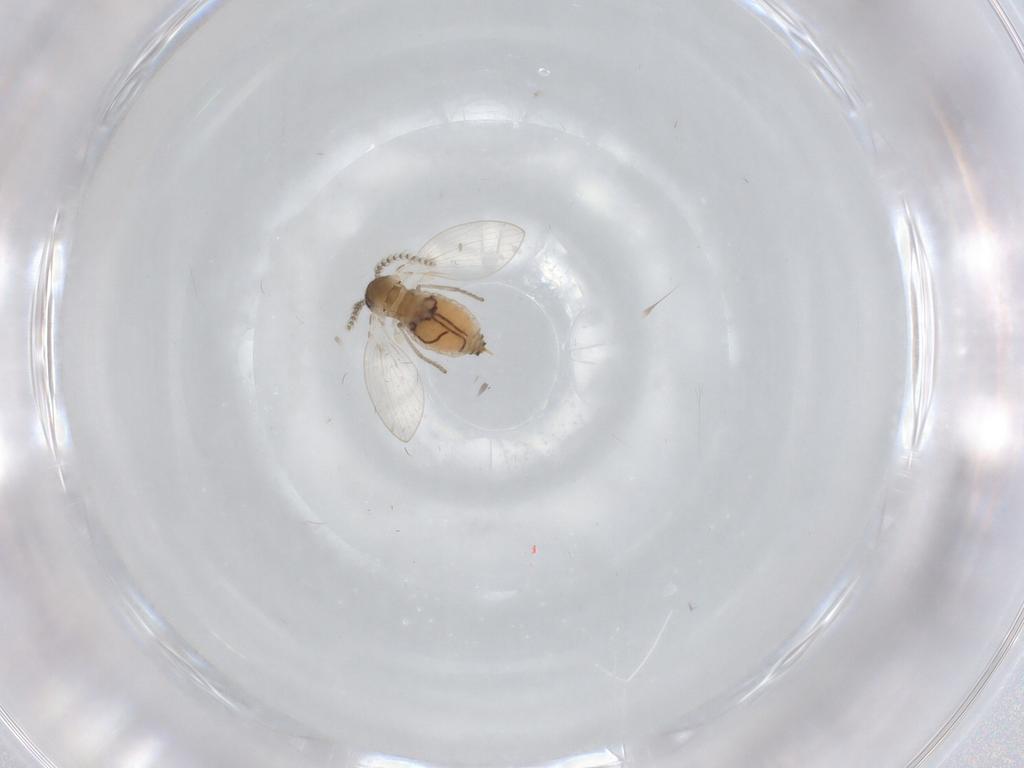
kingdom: Animalia
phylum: Arthropoda
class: Insecta
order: Diptera
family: Psychodidae
